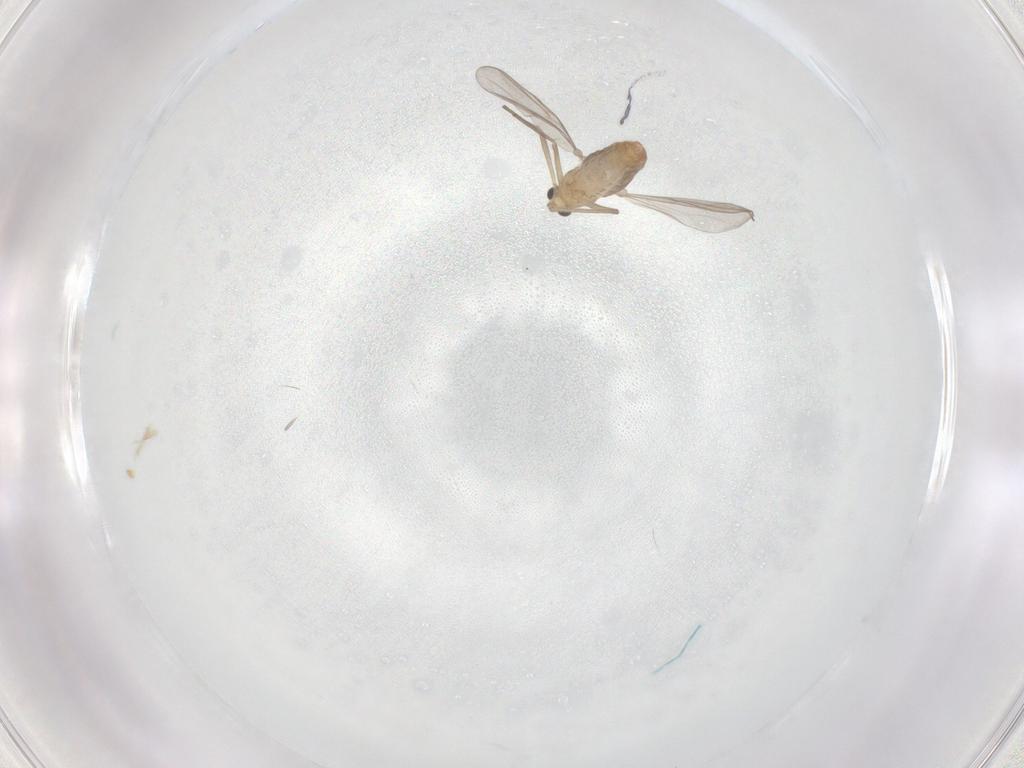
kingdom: Animalia
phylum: Arthropoda
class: Insecta
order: Diptera
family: Chironomidae
